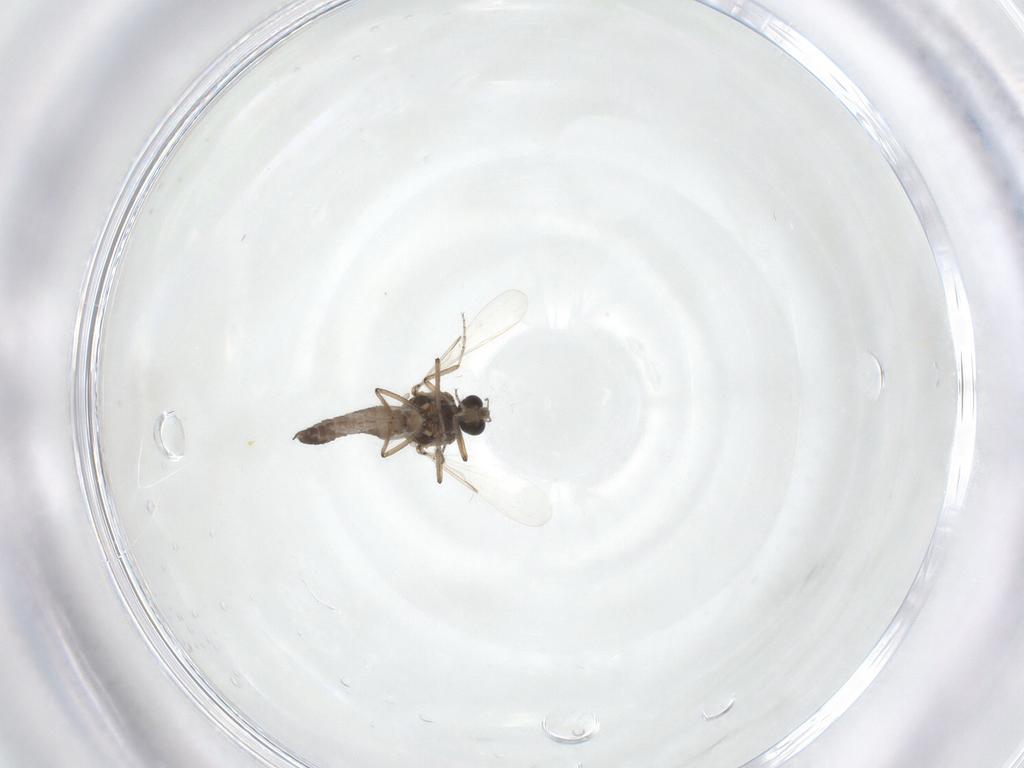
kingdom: Animalia
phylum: Arthropoda
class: Insecta
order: Diptera
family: Ceratopogonidae
